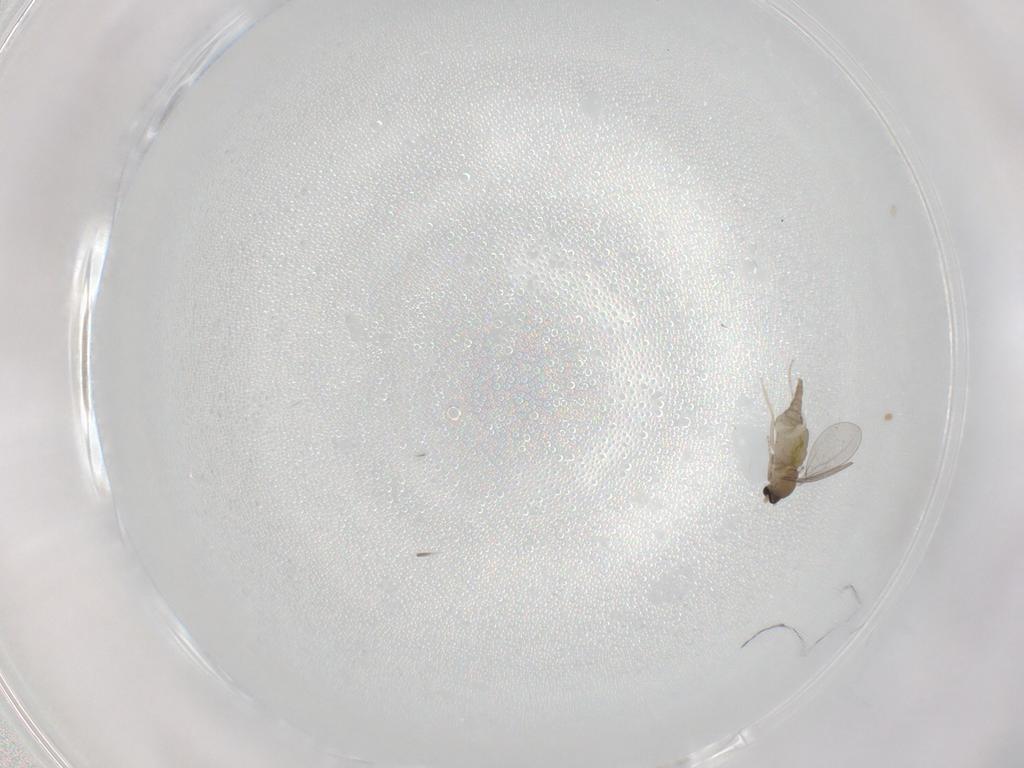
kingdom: Animalia
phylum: Arthropoda
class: Insecta
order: Diptera
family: Cecidomyiidae
